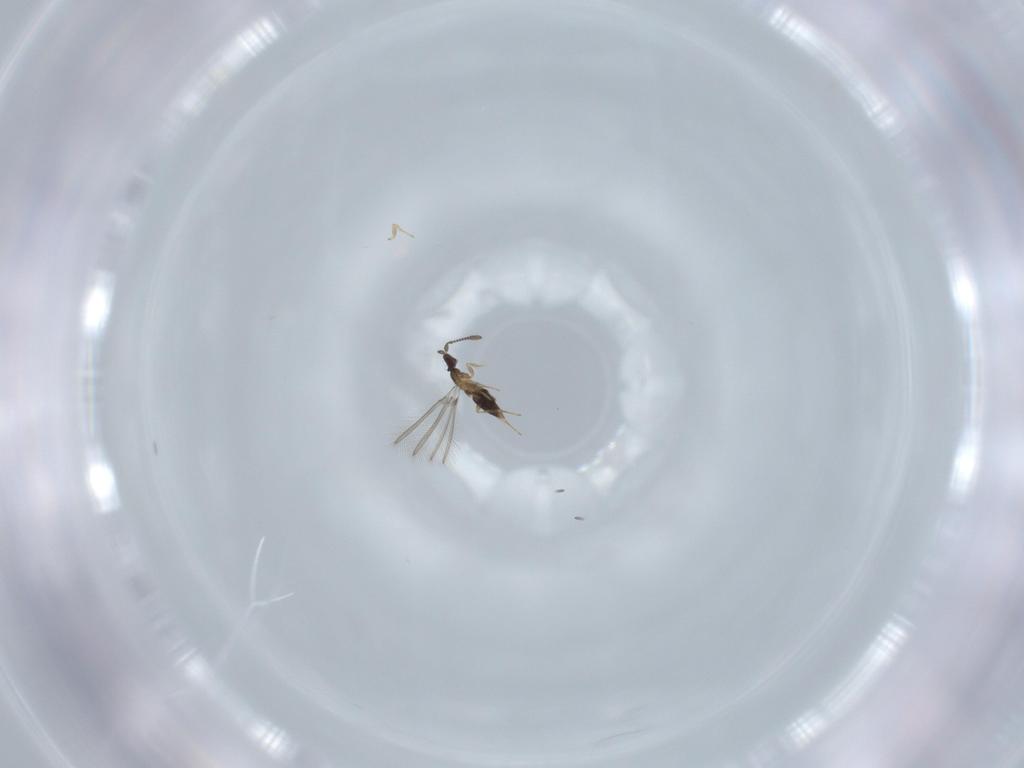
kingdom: Animalia
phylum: Arthropoda
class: Insecta
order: Hymenoptera
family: Mymaridae
